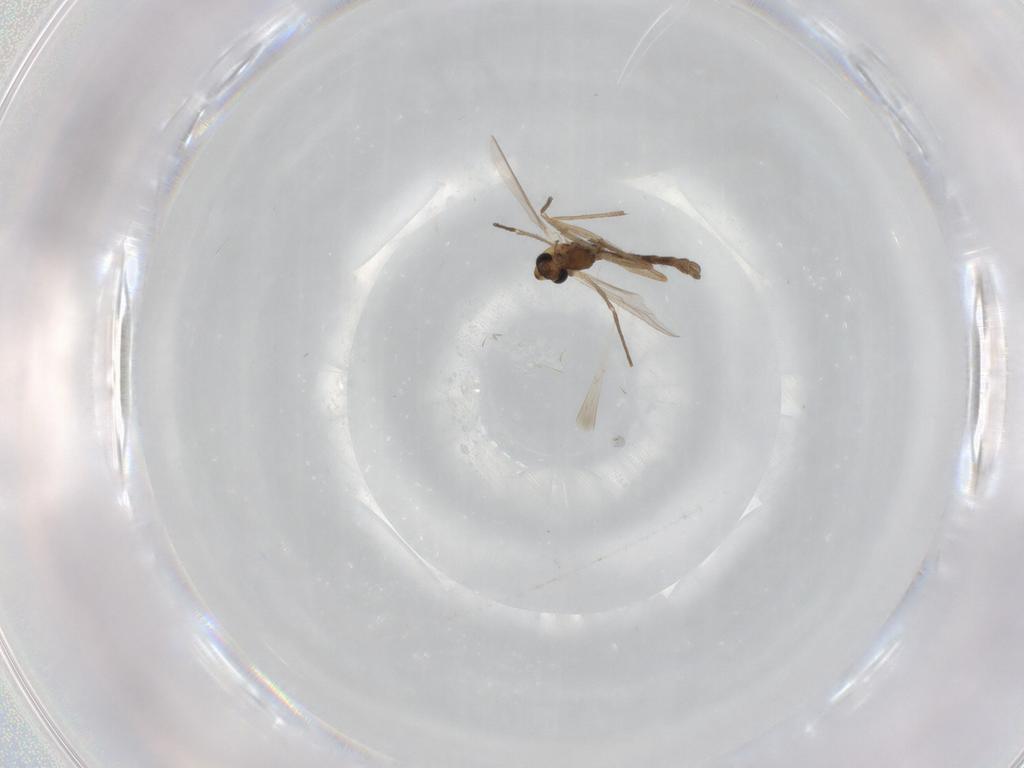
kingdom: Animalia
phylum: Arthropoda
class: Insecta
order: Diptera
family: Chironomidae
